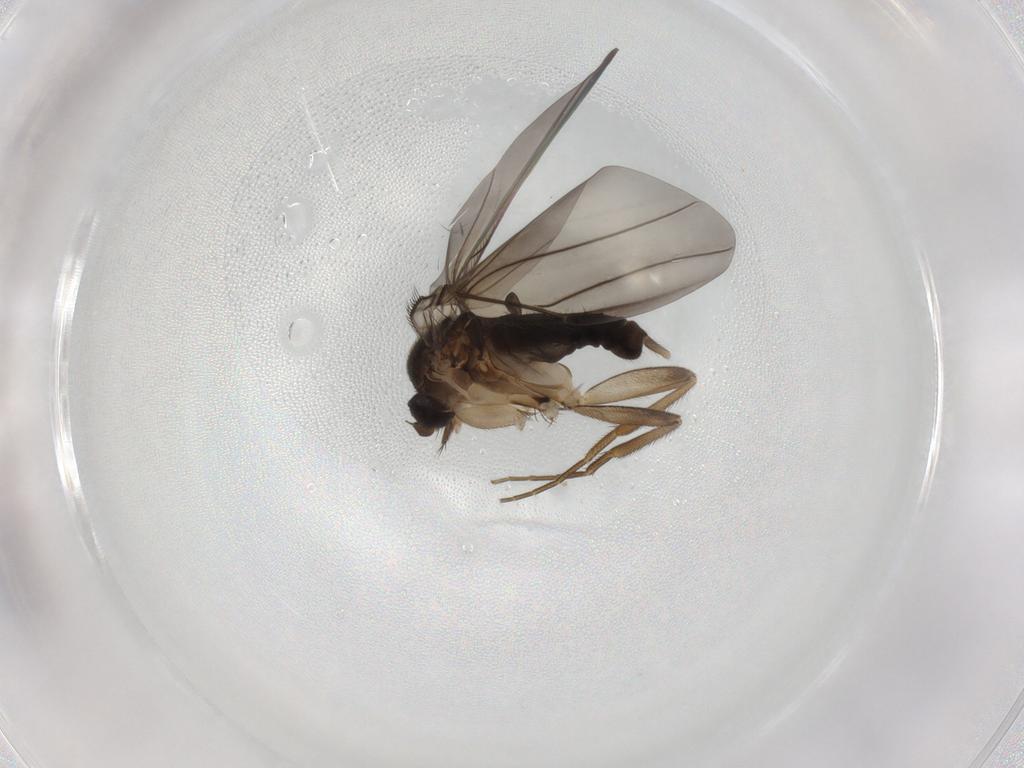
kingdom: Animalia
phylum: Arthropoda
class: Insecta
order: Diptera
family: Phoridae
